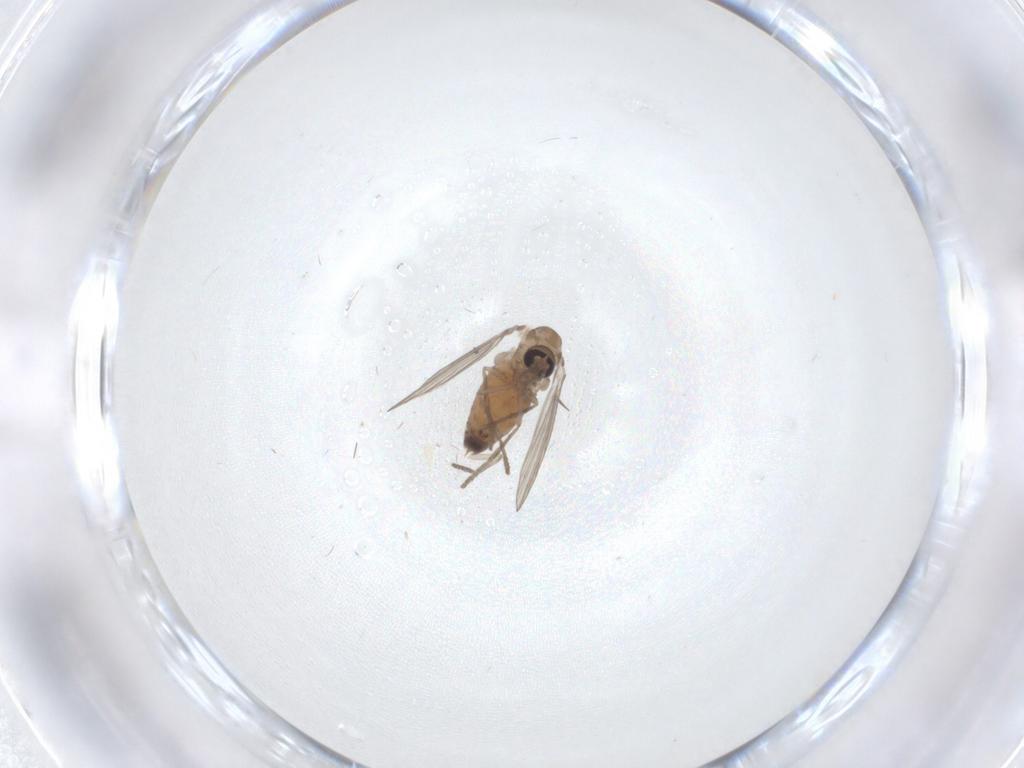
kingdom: Animalia
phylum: Arthropoda
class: Insecta
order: Diptera
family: Psychodidae
